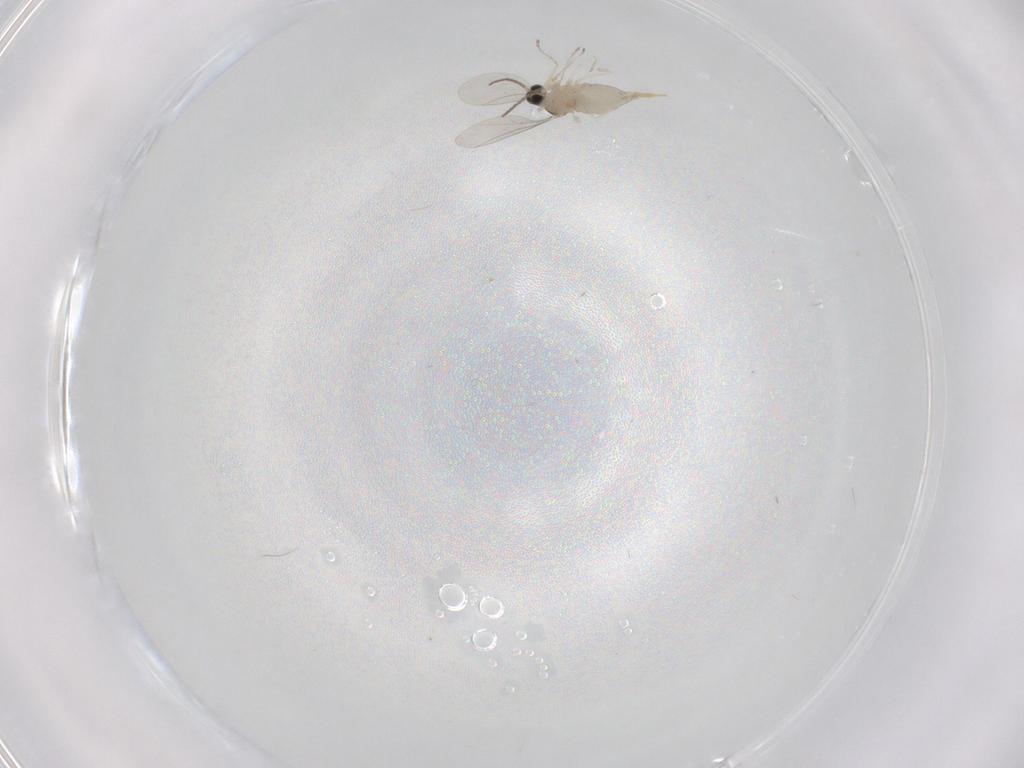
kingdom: Animalia
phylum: Arthropoda
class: Insecta
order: Diptera
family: Cecidomyiidae
